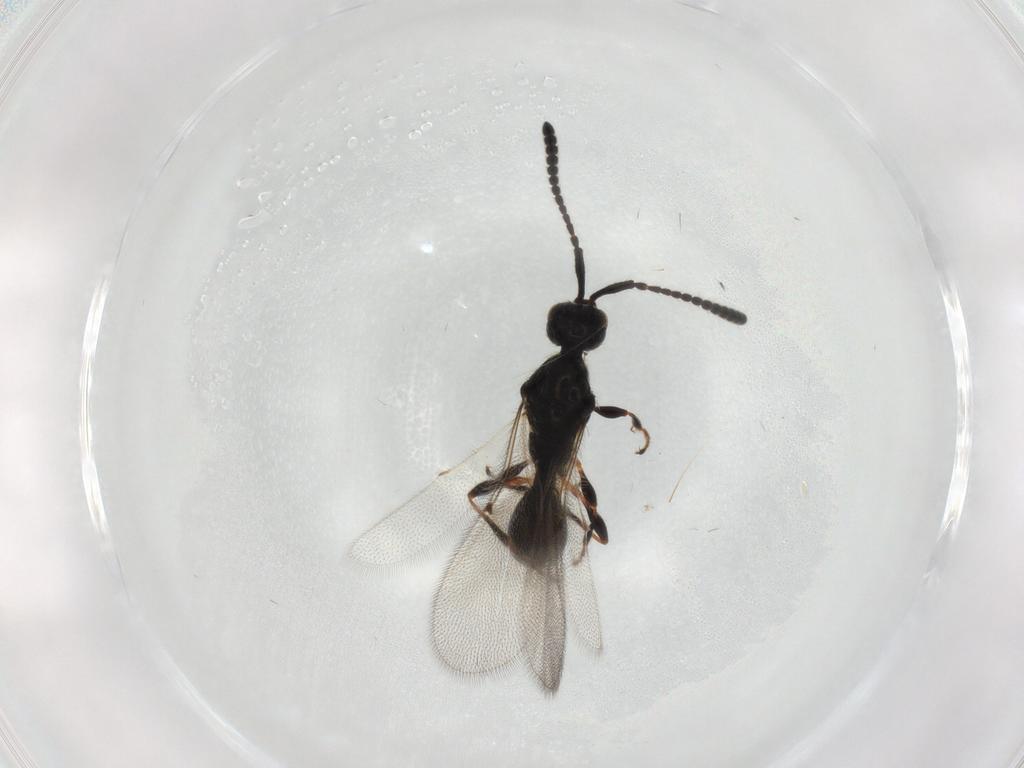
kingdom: Animalia
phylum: Arthropoda
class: Insecta
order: Hymenoptera
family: Diapriidae
